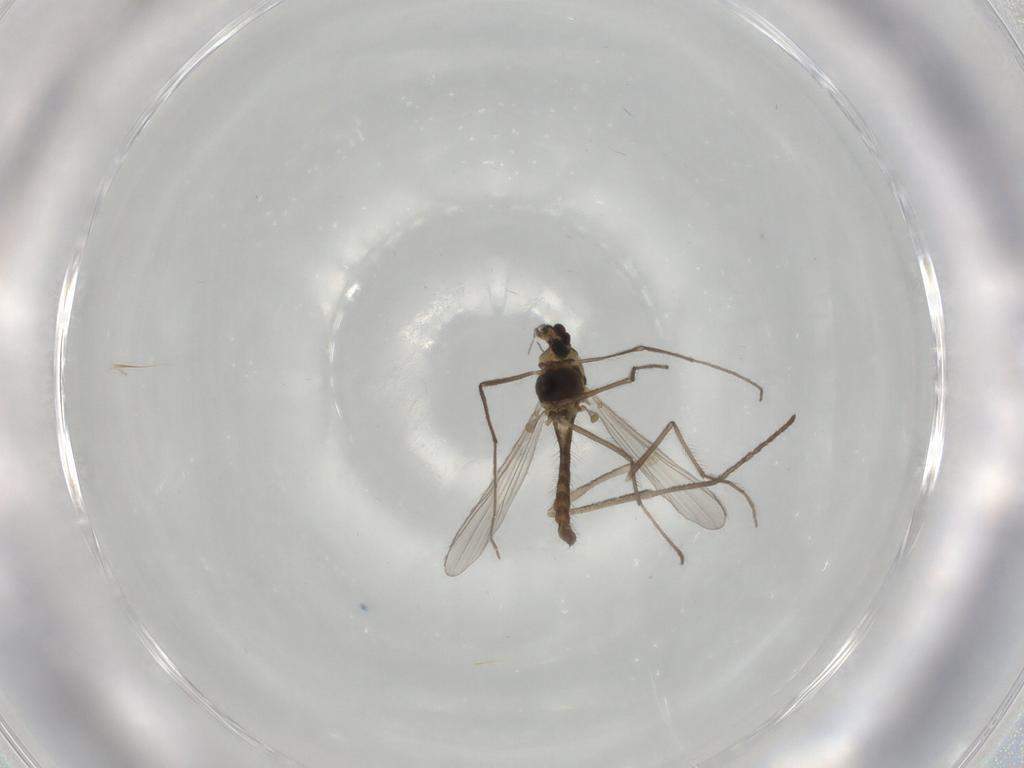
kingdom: Animalia
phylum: Arthropoda
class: Insecta
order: Diptera
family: Chironomidae
